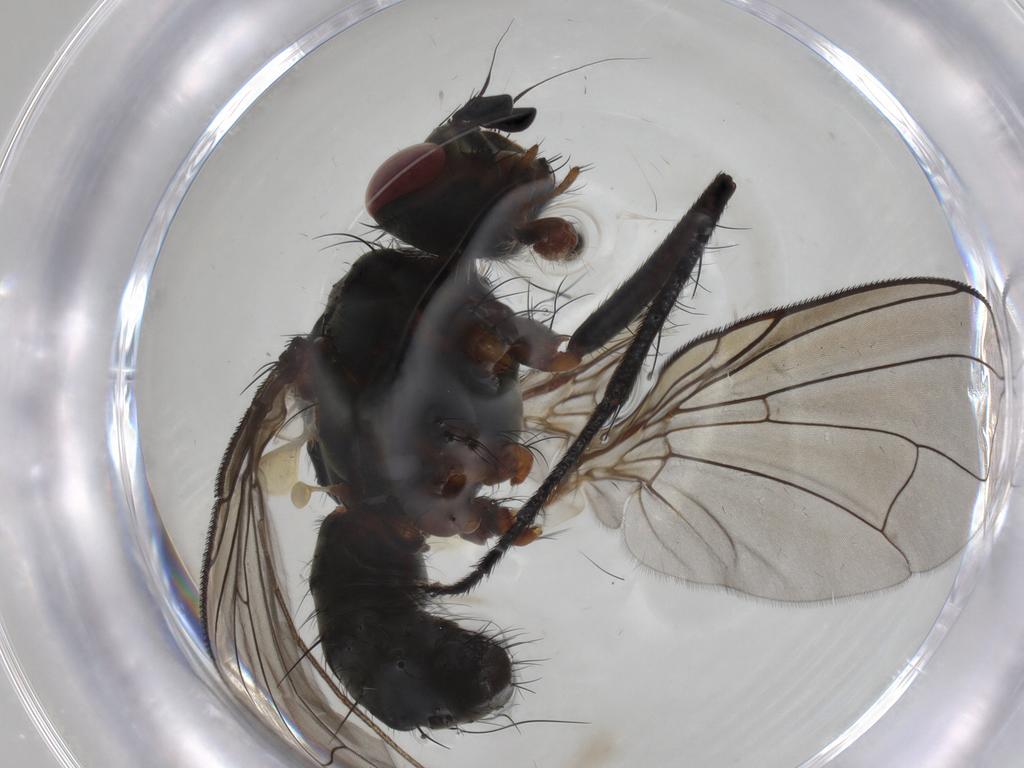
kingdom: Animalia
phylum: Arthropoda
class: Insecta
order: Diptera
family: Tachinidae
